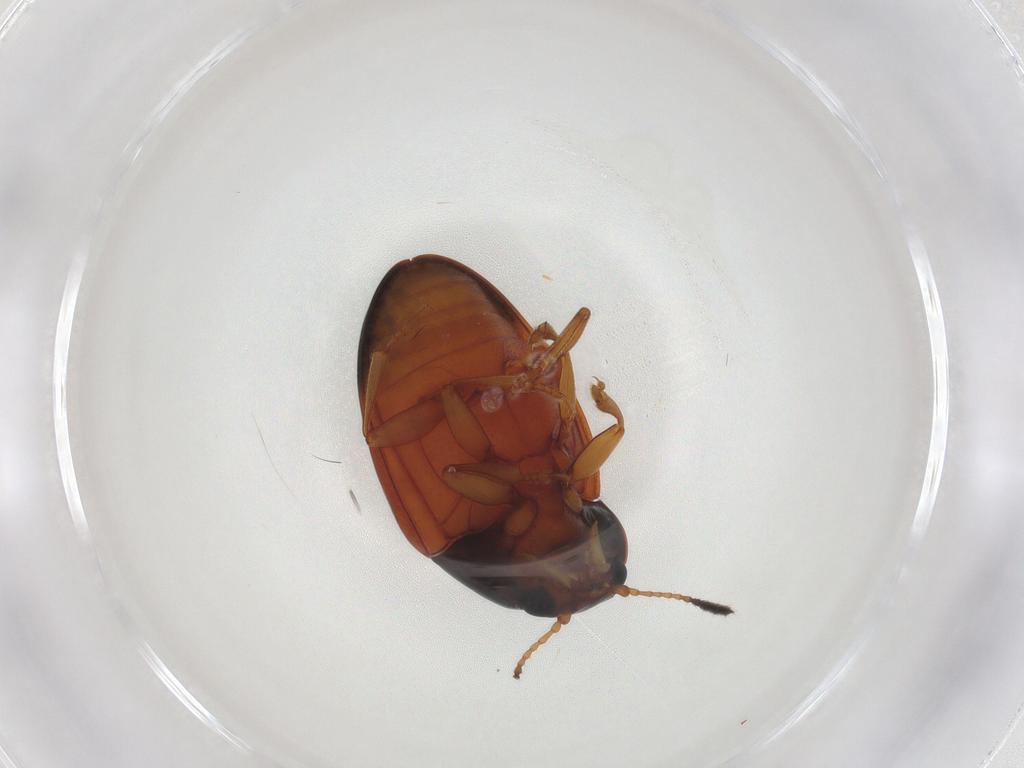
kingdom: Animalia
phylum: Arthropoda
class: Insecta
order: Coleoptera
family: Erotylidae
